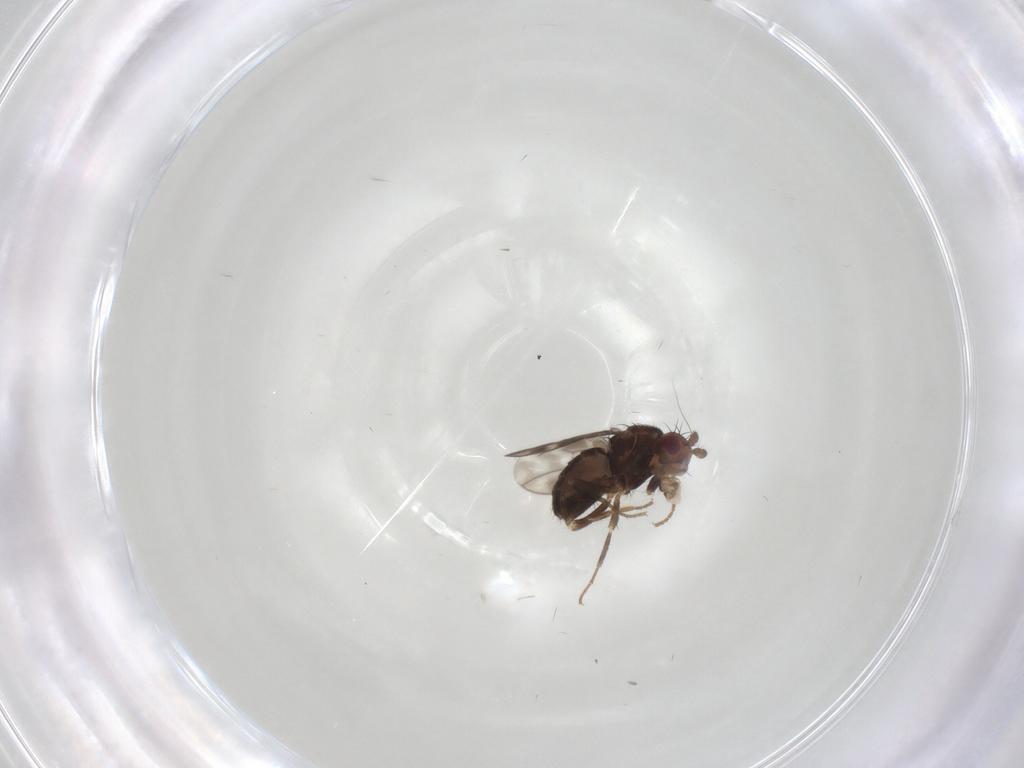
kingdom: Animalia
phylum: Arthropoda
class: Insecta
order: Diptera
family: Sphaeroceridae
